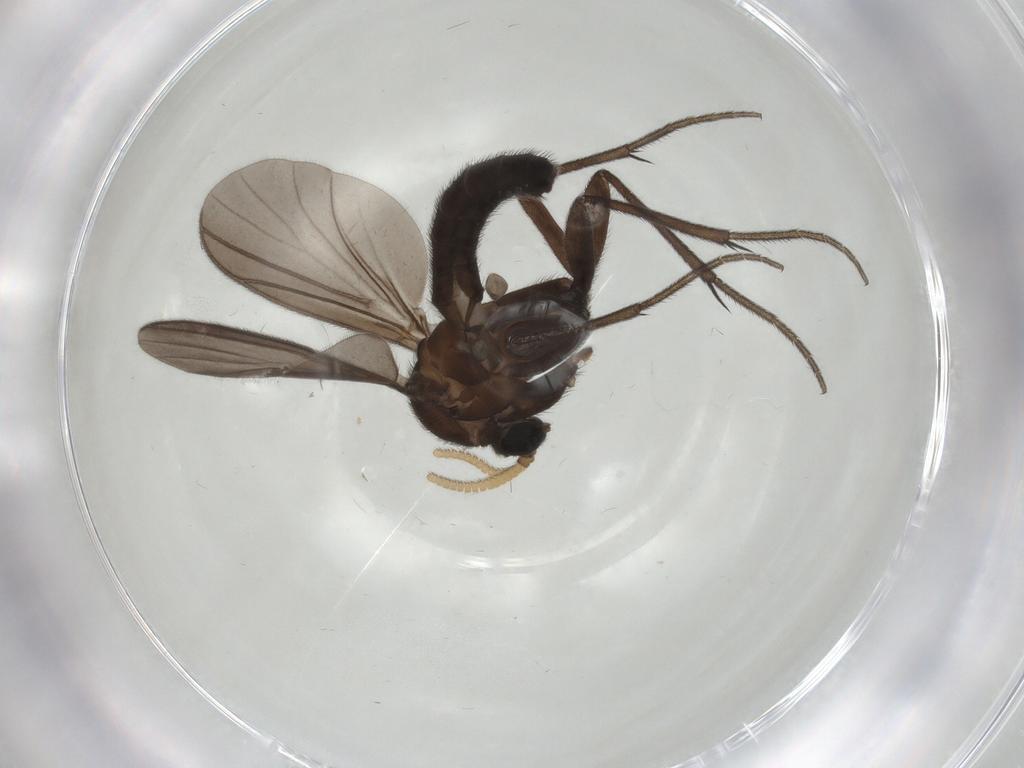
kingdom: Animalia
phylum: Arthropoda
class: Insecta
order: Diptera
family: Mycetophilidae
